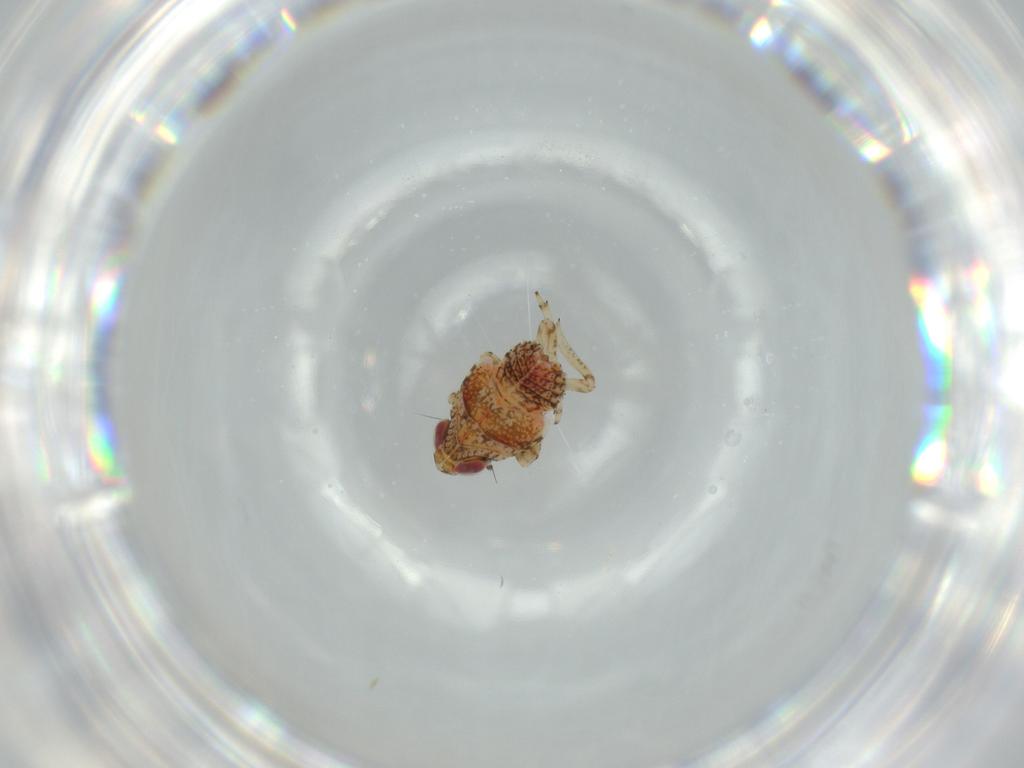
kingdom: Animalia
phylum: Arthropoda
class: Insecta
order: Hemiptera
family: Issidae
